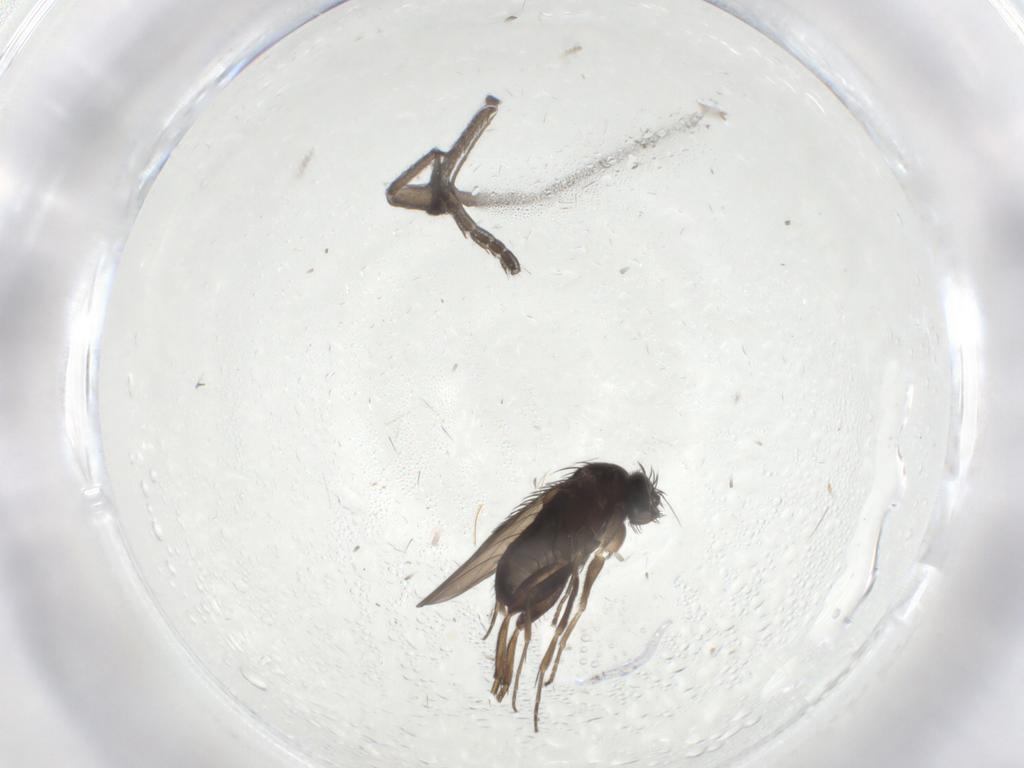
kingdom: Animalia
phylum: Arthropoda
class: Insecta
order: Diptera
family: Phoridae
